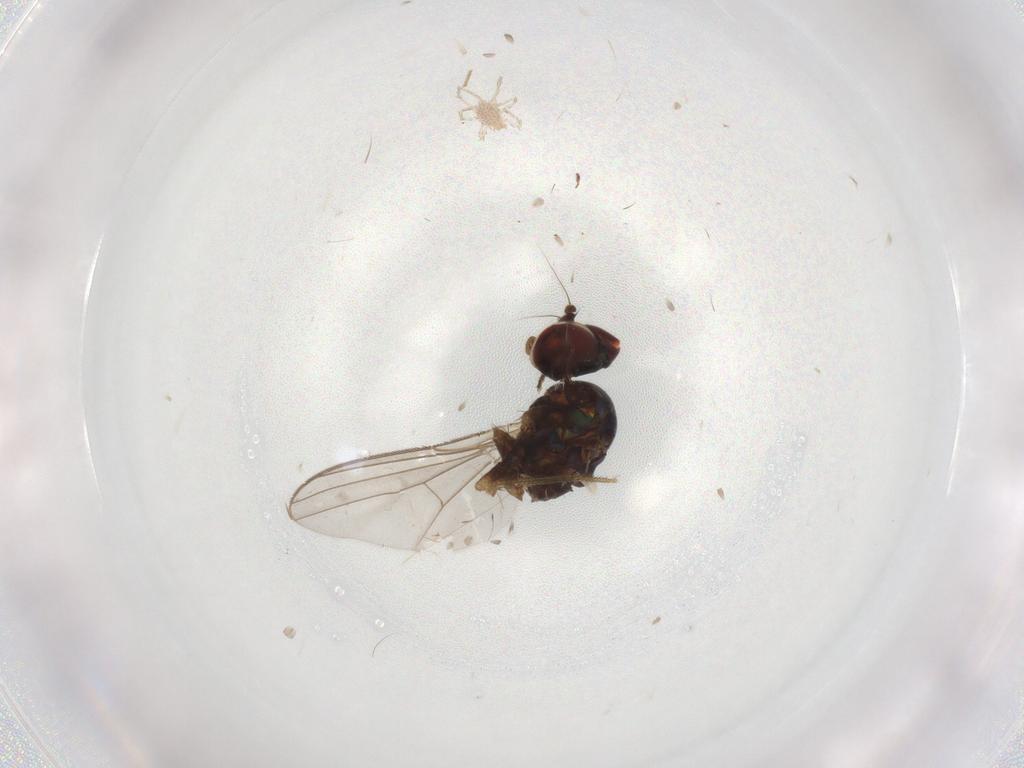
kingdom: Animalia
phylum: Arthropoda
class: Insecta
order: Diptera
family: Dolichopodidae
